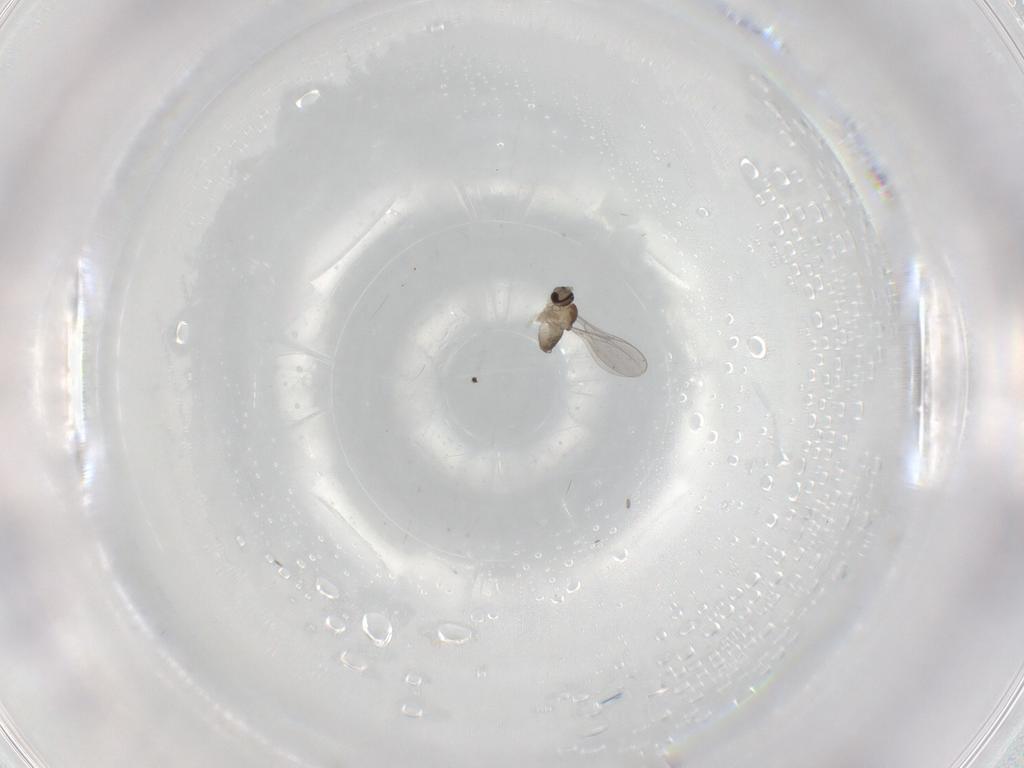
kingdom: Animalia
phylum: Arthropoda
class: Insecta
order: Diptera
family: Cecidomyiidae
